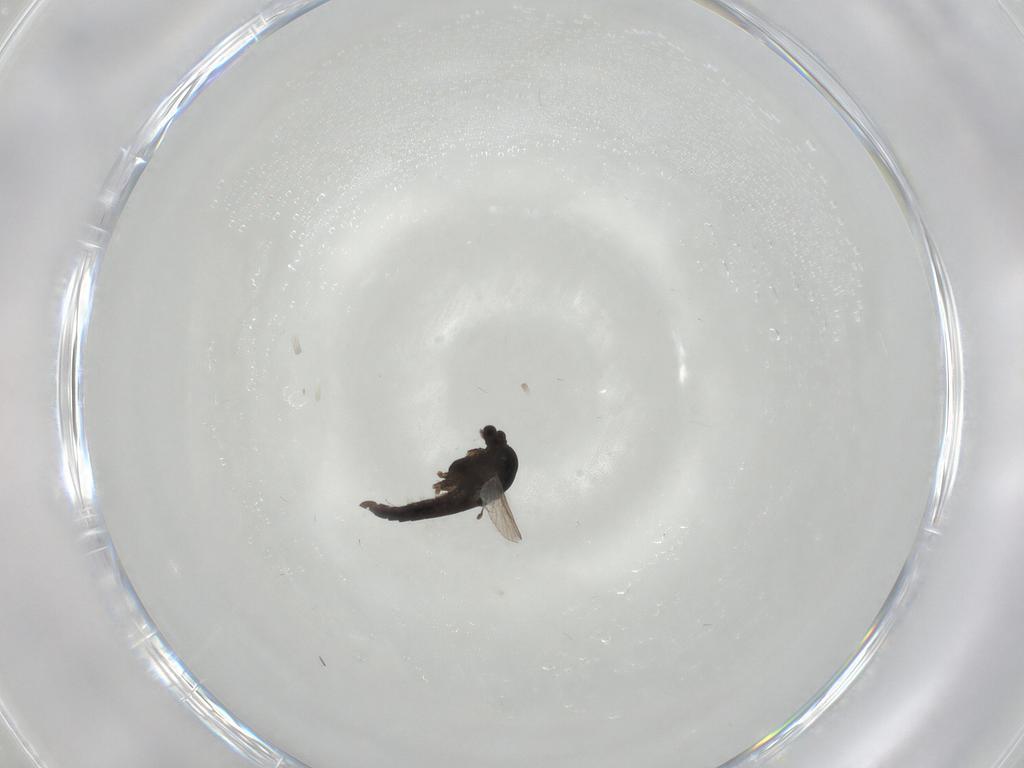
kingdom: Animalia
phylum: Arthropoda
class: Insecta
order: Diptera
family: Chironomidae
